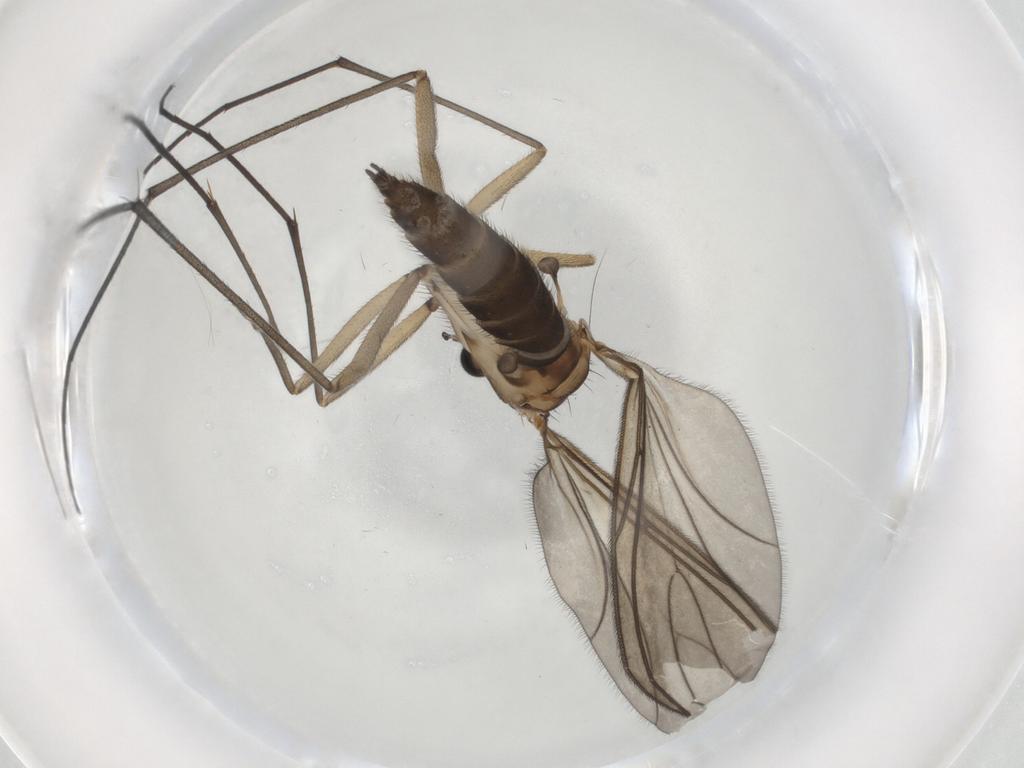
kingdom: Animalia
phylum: Arthropoda
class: Insecta
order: Diptera
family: Sciaridae
